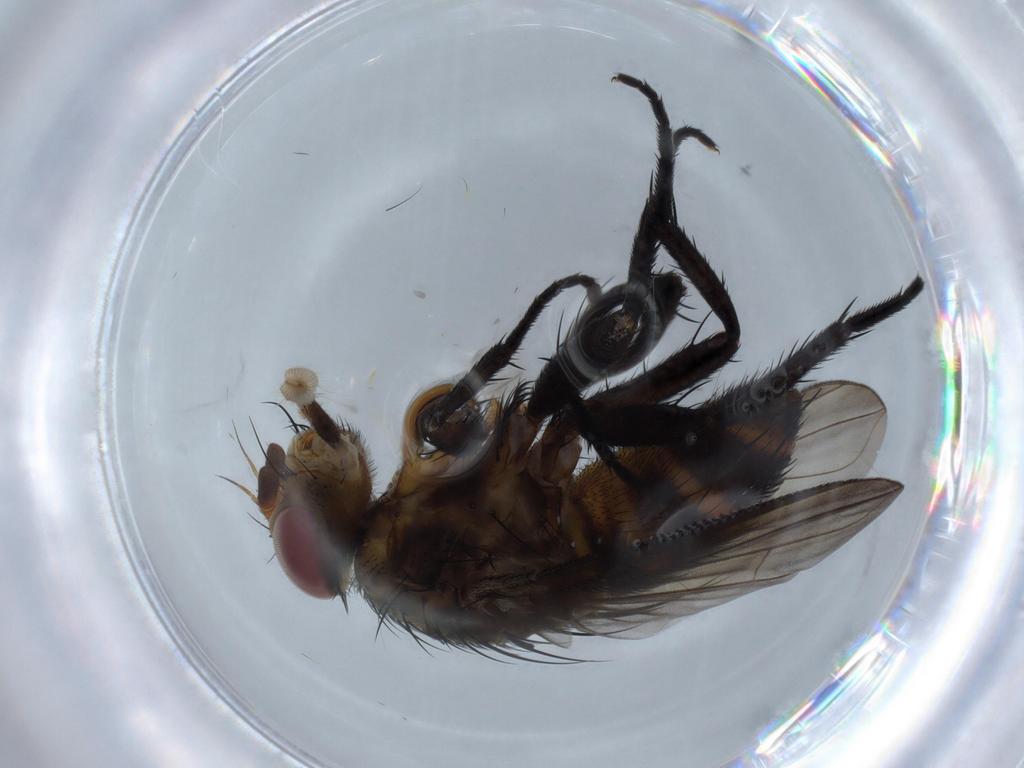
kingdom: Animalia
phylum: Arthropoda
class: Insecta
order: Diptera
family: Dolichopodidae
